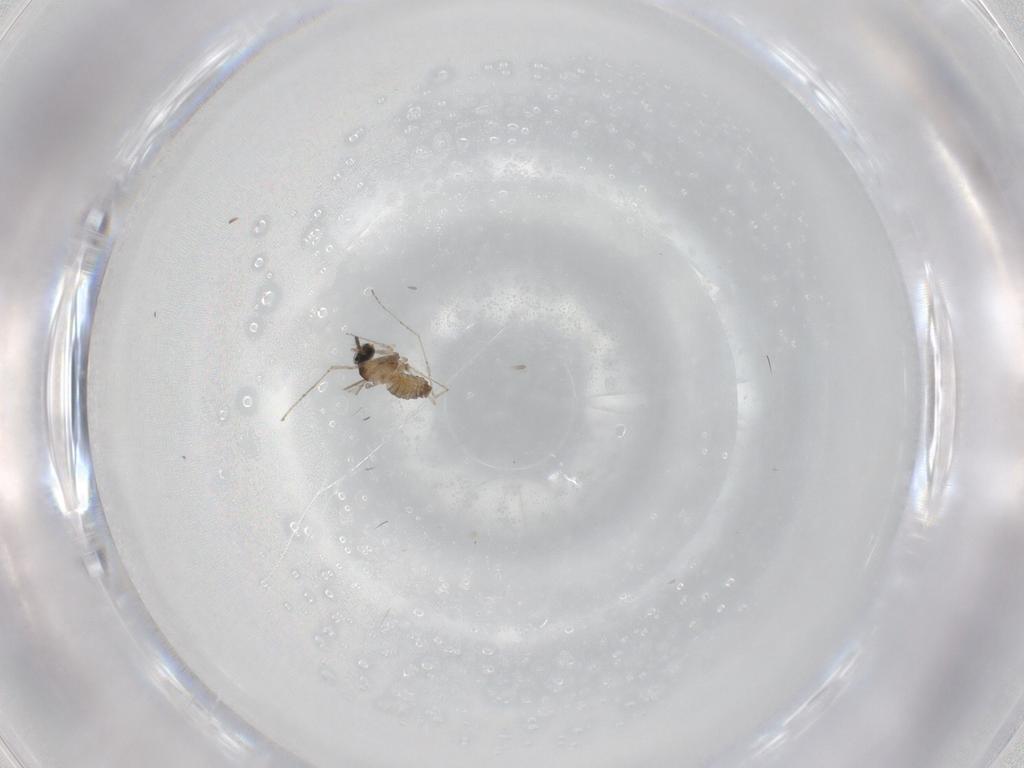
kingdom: Animalia
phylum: Arthropoda
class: Insecta
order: Diptera
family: Cecidomyiidae
